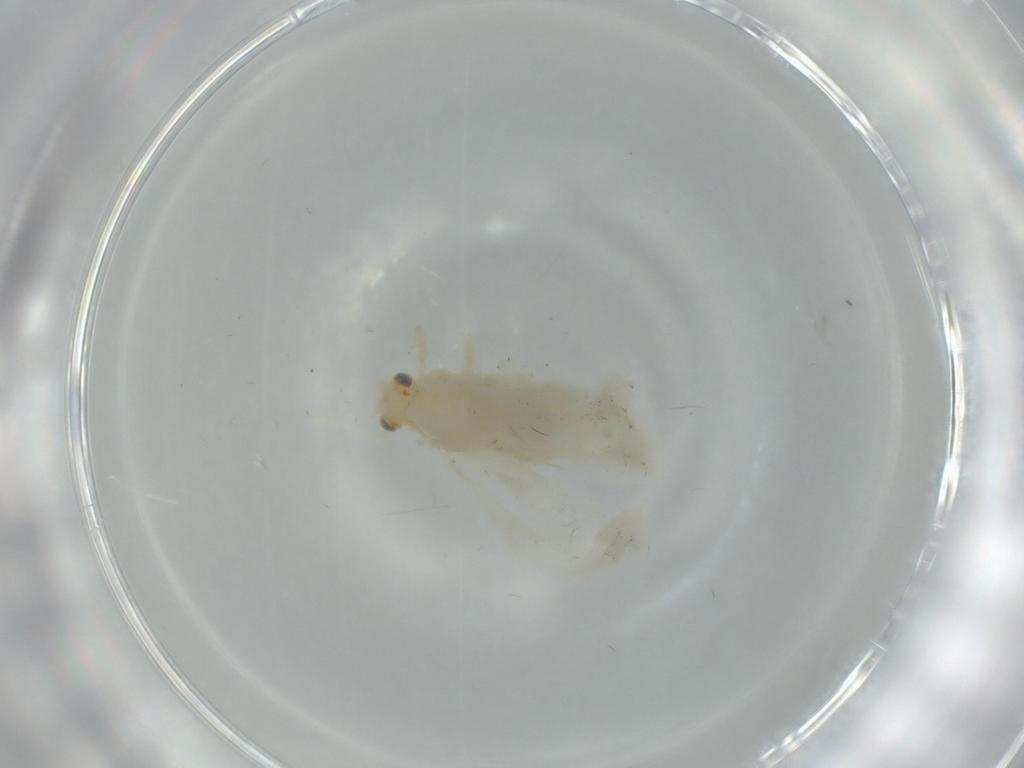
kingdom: Animalia
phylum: Arthropoda
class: Insecta
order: Hemiptera
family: Triozidae
